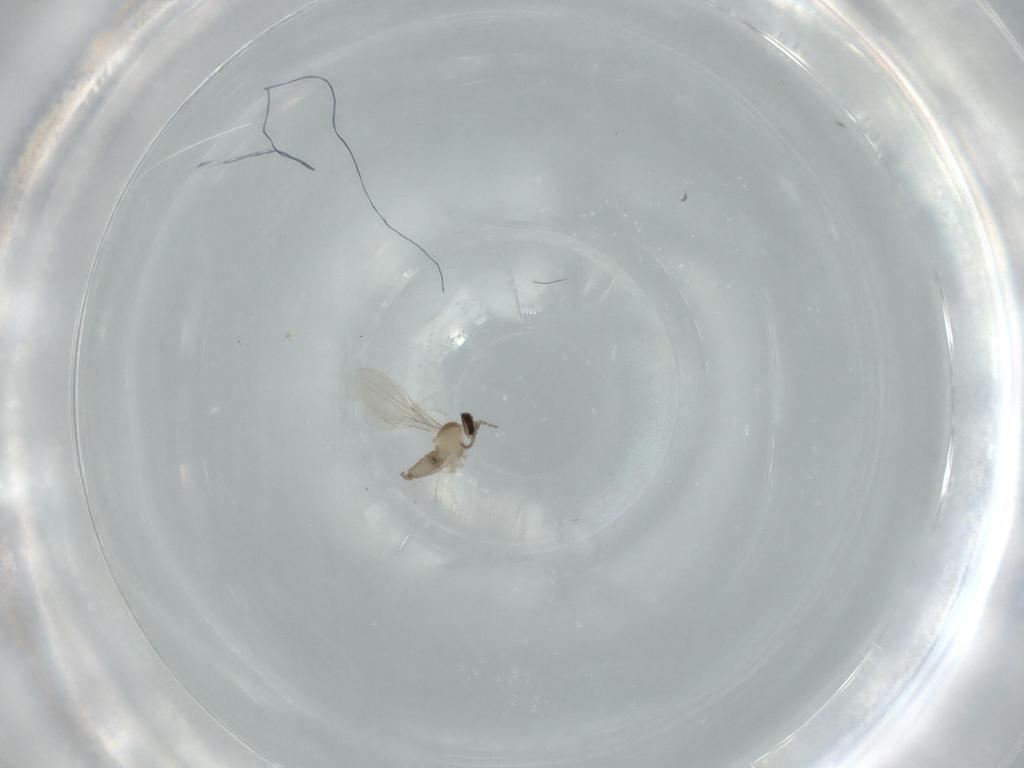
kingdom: Animalia
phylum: Arthropoda
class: Insecta
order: Diptera
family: Cecidomyiidae
